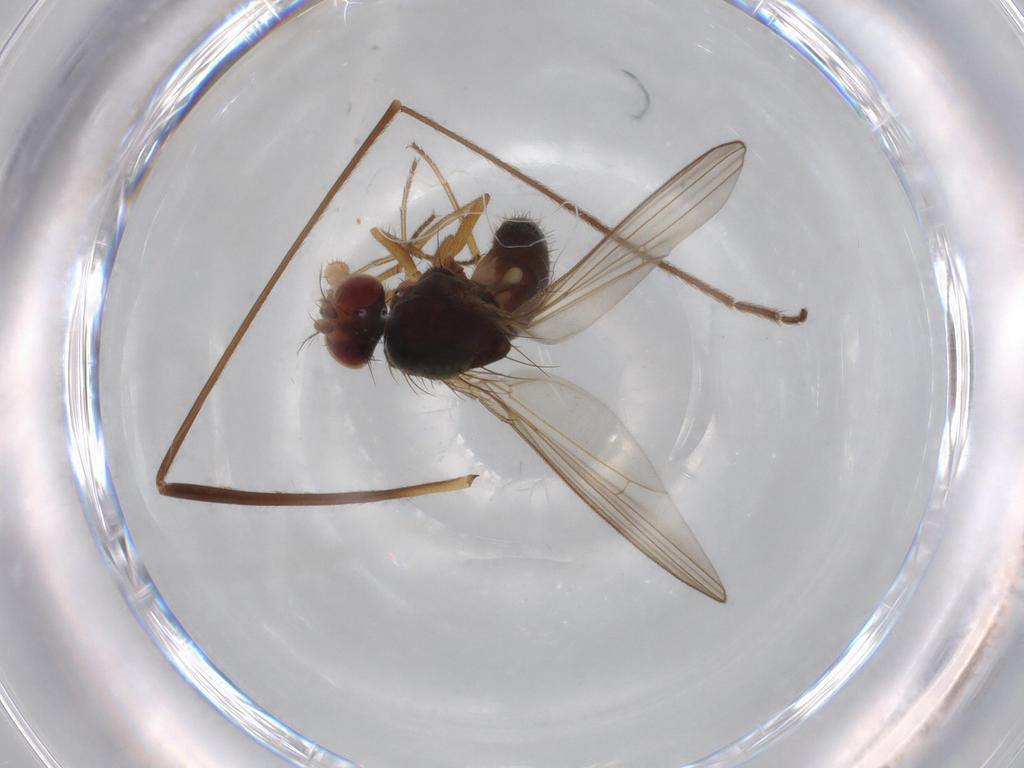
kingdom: Animalia
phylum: Arthropoda
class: Insecta
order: Diptera
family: Drosophilidae
